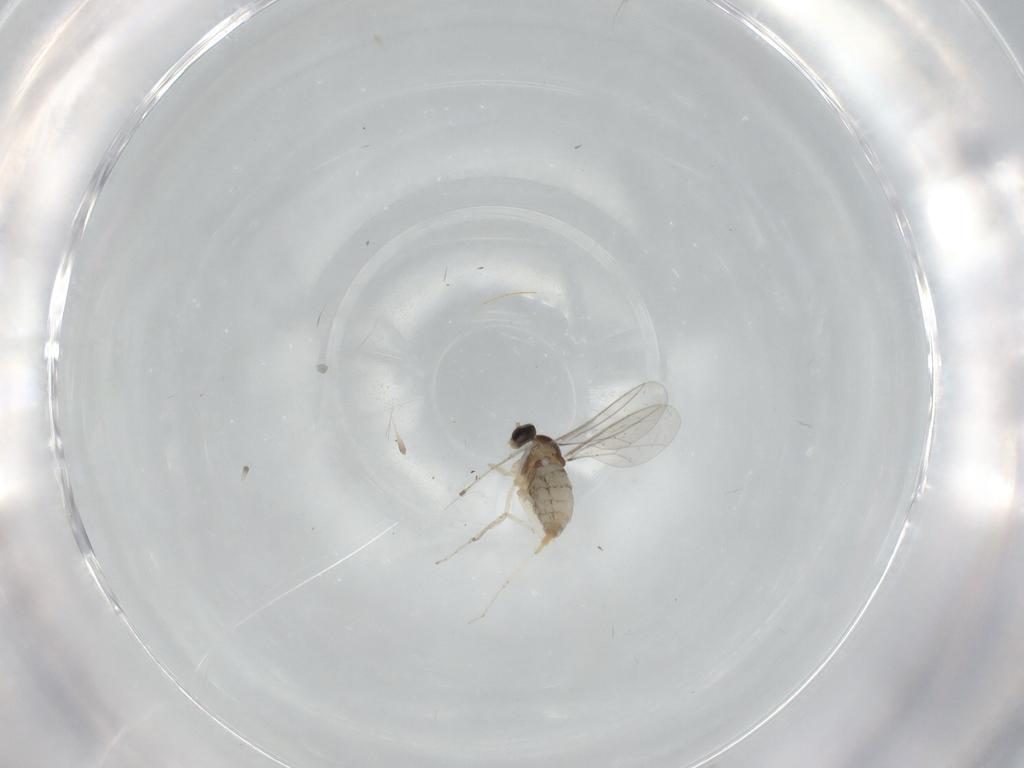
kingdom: Animalia
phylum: Arthropoda
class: Insecta
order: Diptera
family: Cecidomyiidae
